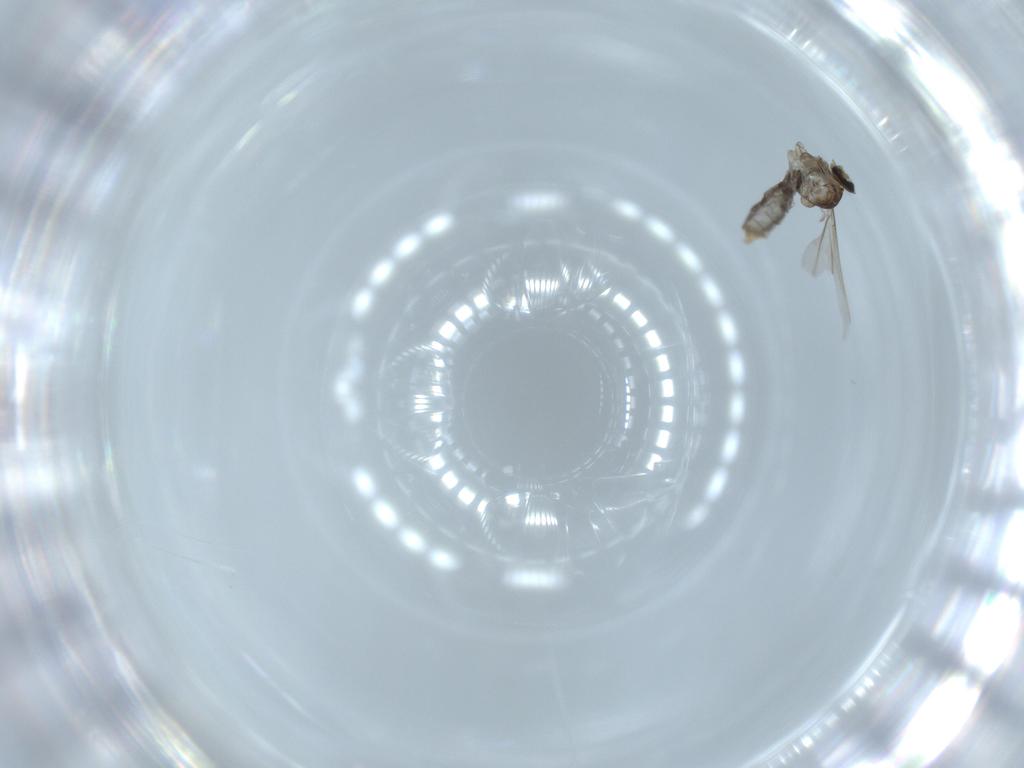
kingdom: Animalia
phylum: Arthropoda
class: Insecta
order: Diptera
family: Cecidomyiidae
